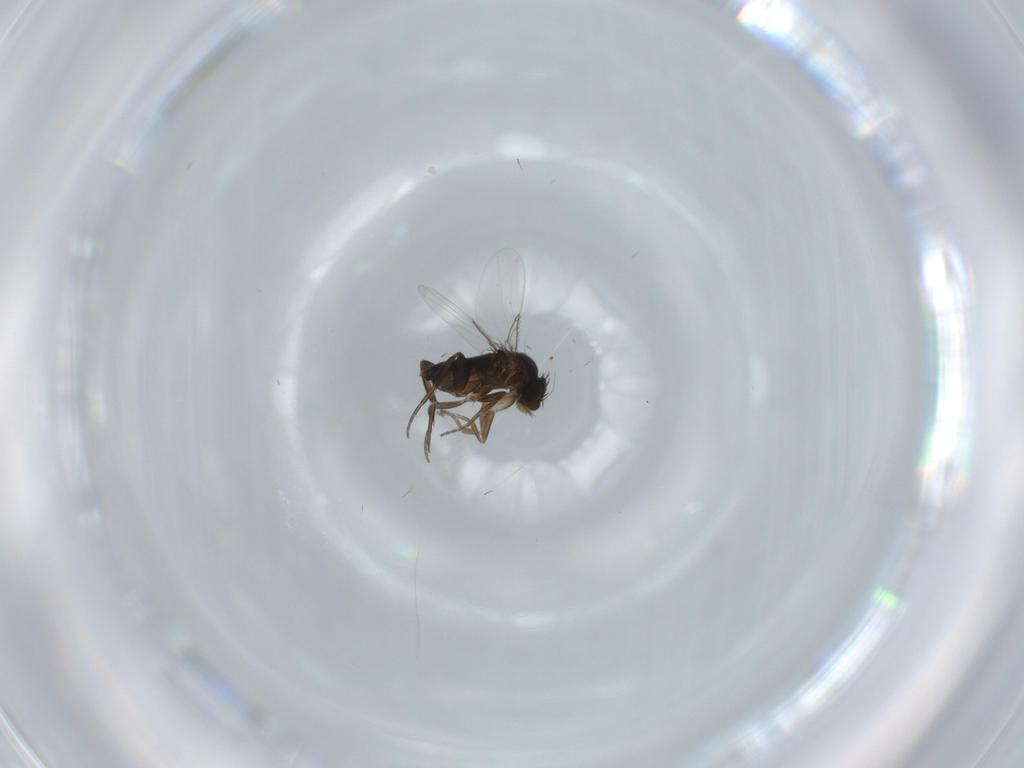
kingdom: Animalia
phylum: Arthropoda
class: Insecta
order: Diptera
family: Phoridae
